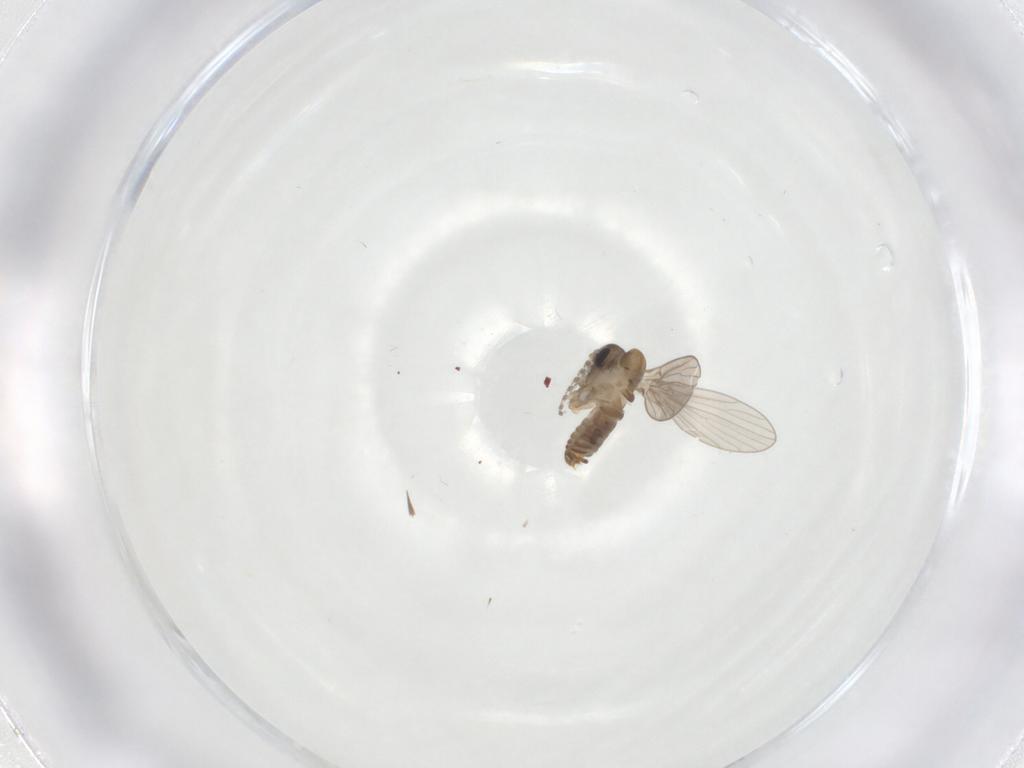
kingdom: Animalia
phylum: Arthropoda
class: Insecta
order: Diptera
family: Psychodidae
